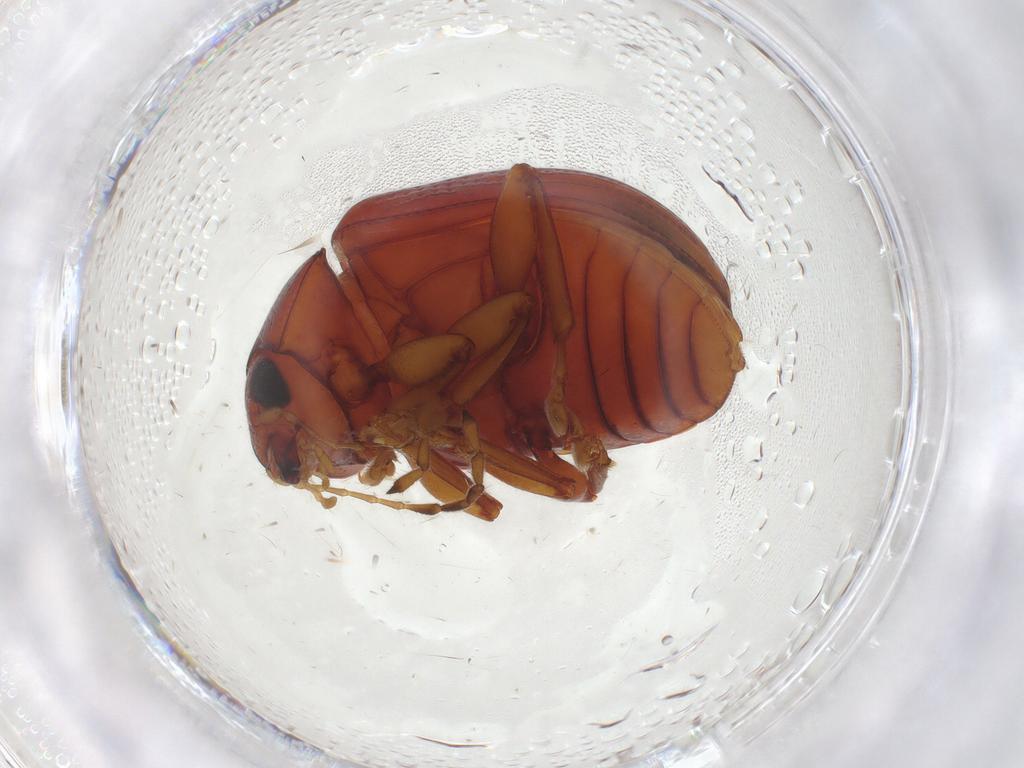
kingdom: Animalia
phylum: Arthropoda
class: Insecta
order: Coleoptera
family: Chrysomelidae
